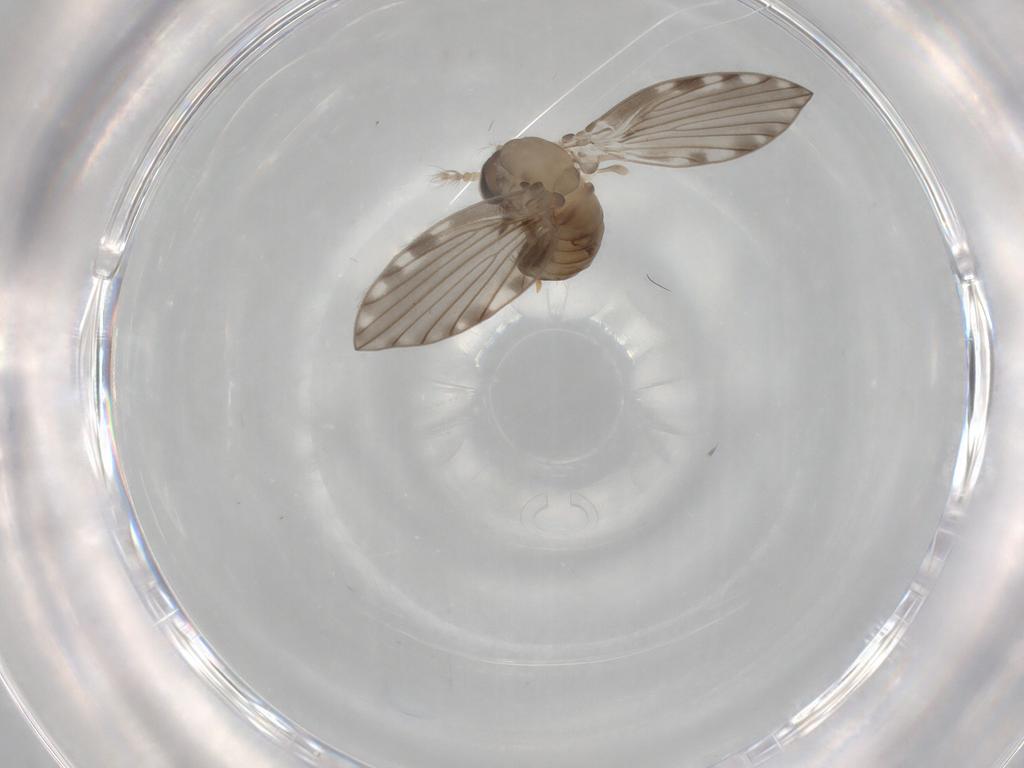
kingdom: Animalia
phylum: Arthropoda
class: Insecta
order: Diptera
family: Psychodidae
